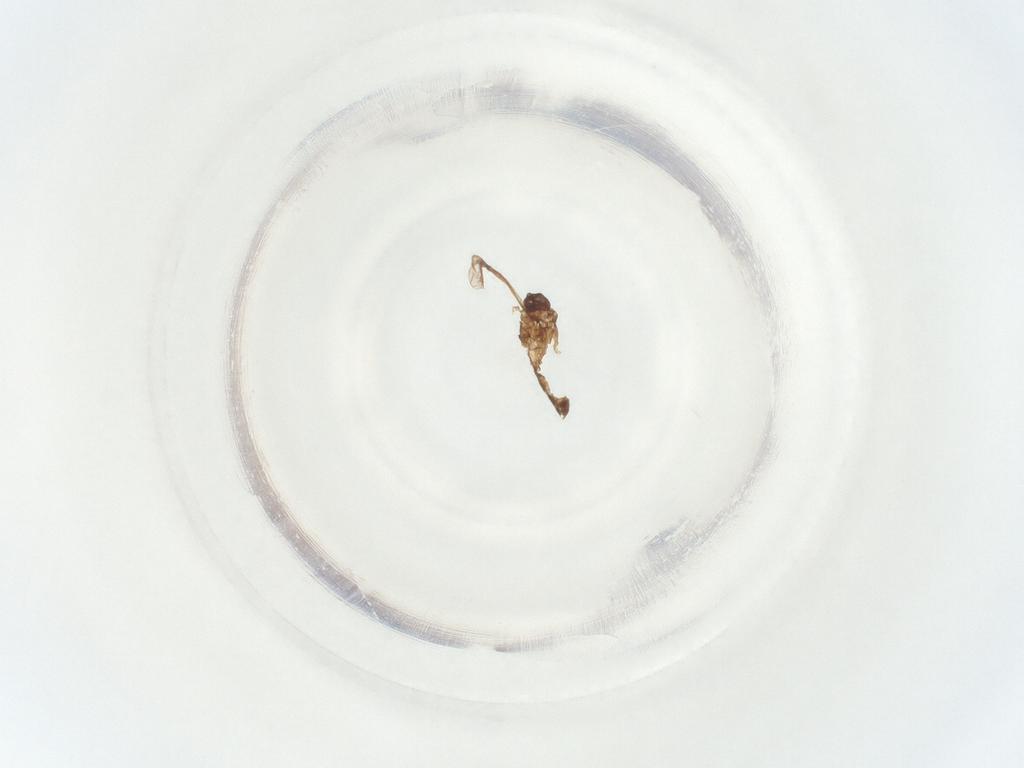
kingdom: Animalia
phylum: Arthropoda
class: Insecta
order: Diptera
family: Sciaridae
